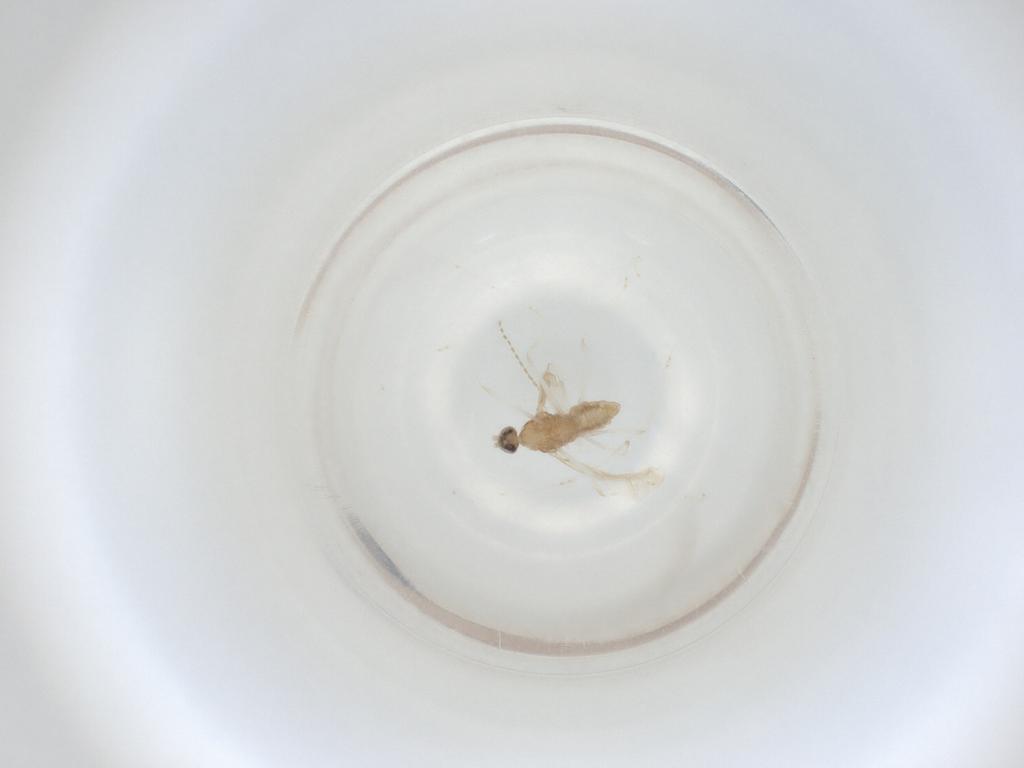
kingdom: Animalia
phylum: Arthropoda
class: Insecta
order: Diptera
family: Cecidomyiidae
